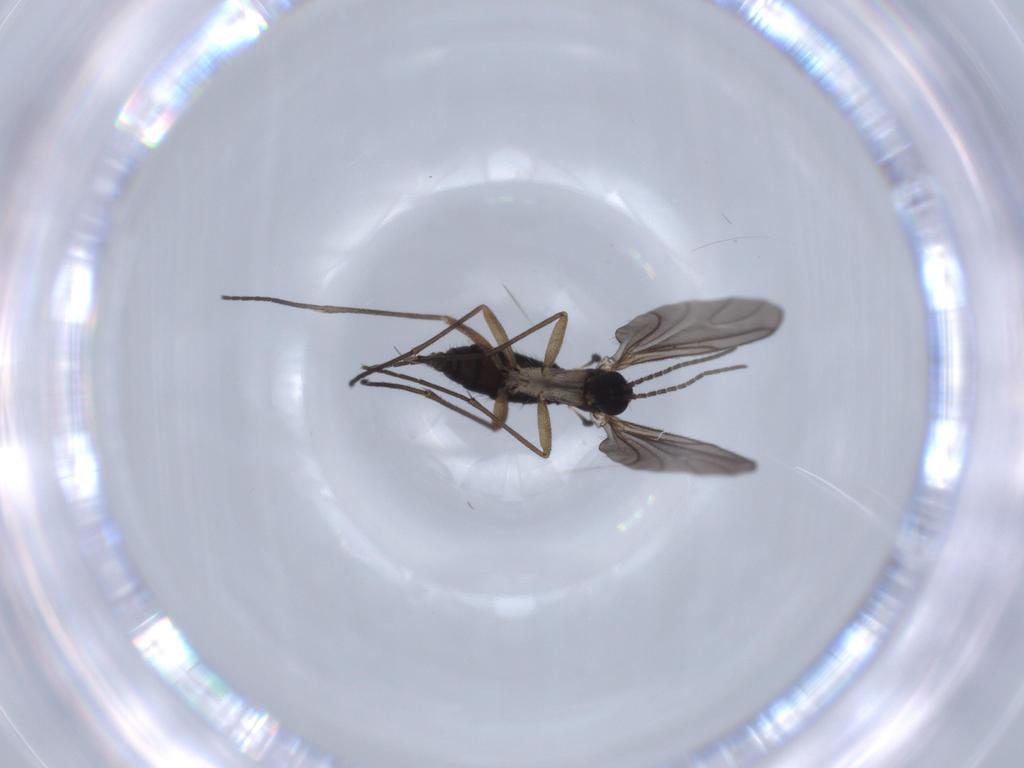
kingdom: Animalia
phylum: Arthropoda
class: Insecta
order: Diptera
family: Sciaridae
